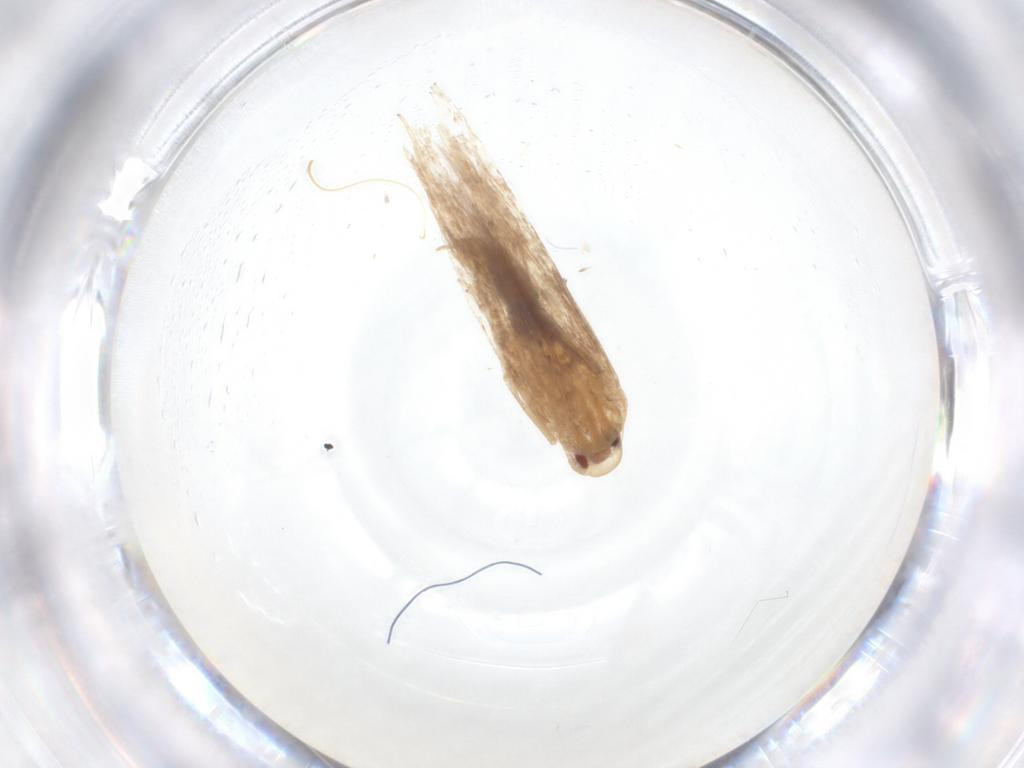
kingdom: Animalia
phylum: Arthropoda
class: Insecta
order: Lepidoptera
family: Erebidae
